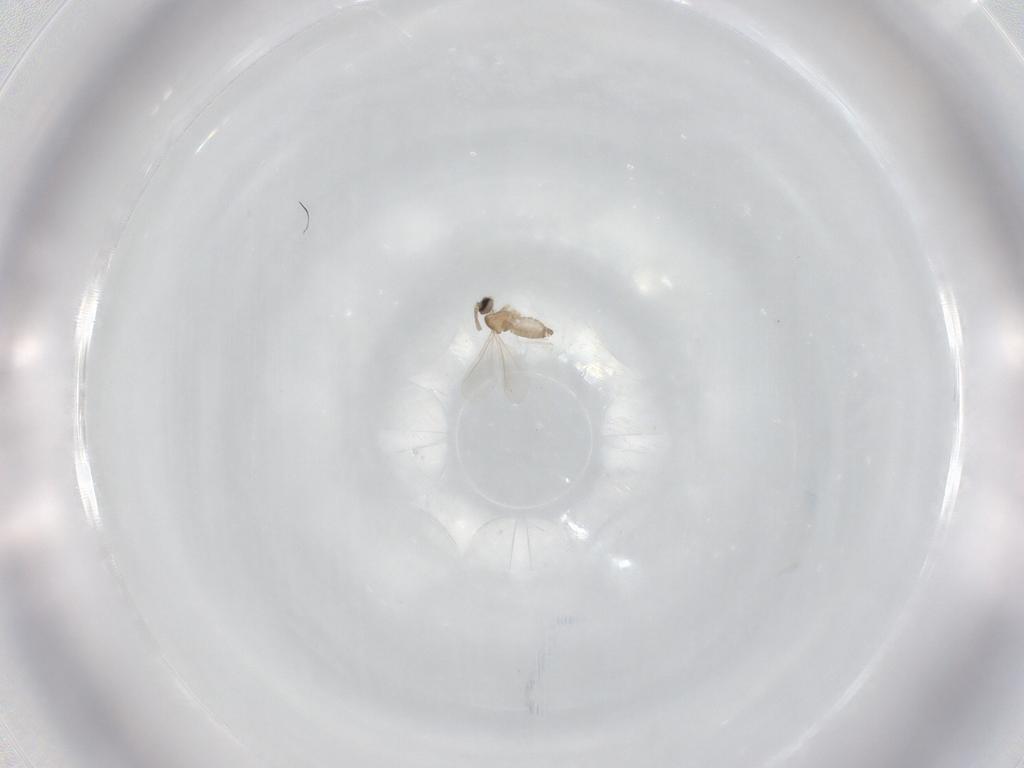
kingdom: Animalia
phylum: Arthropoda
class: Insecta
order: Diptera
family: Cecidomyiidae
